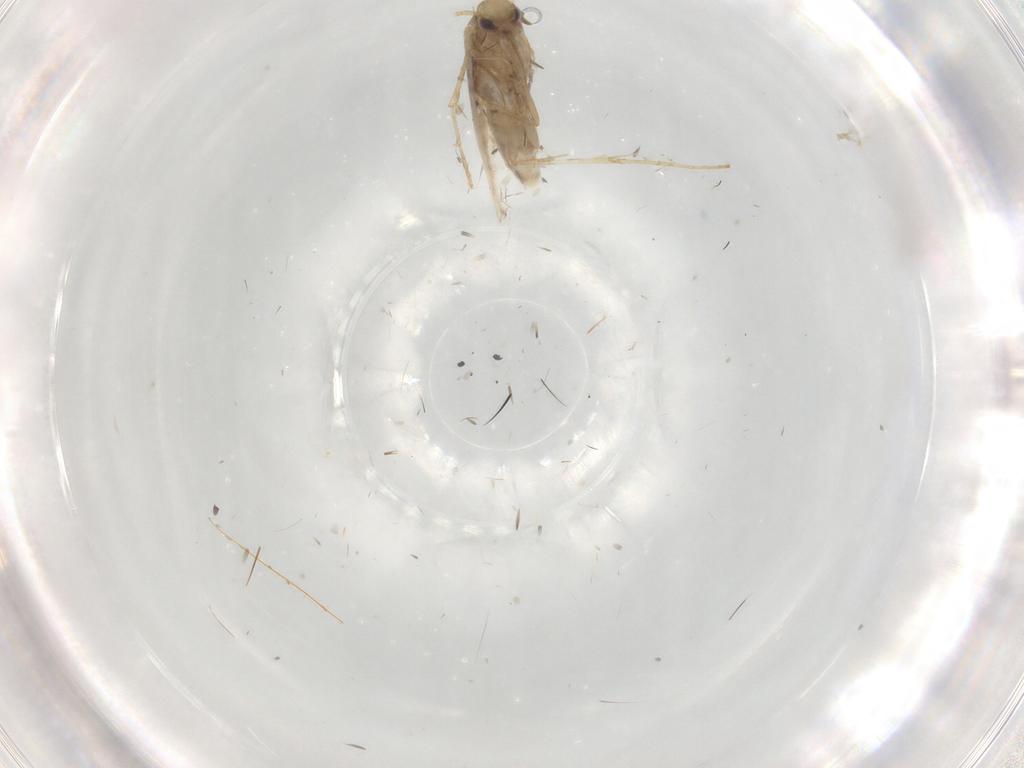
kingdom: Animalia
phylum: Arthropoda
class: Insecta
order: Lepidoptera
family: Gracillariidae
